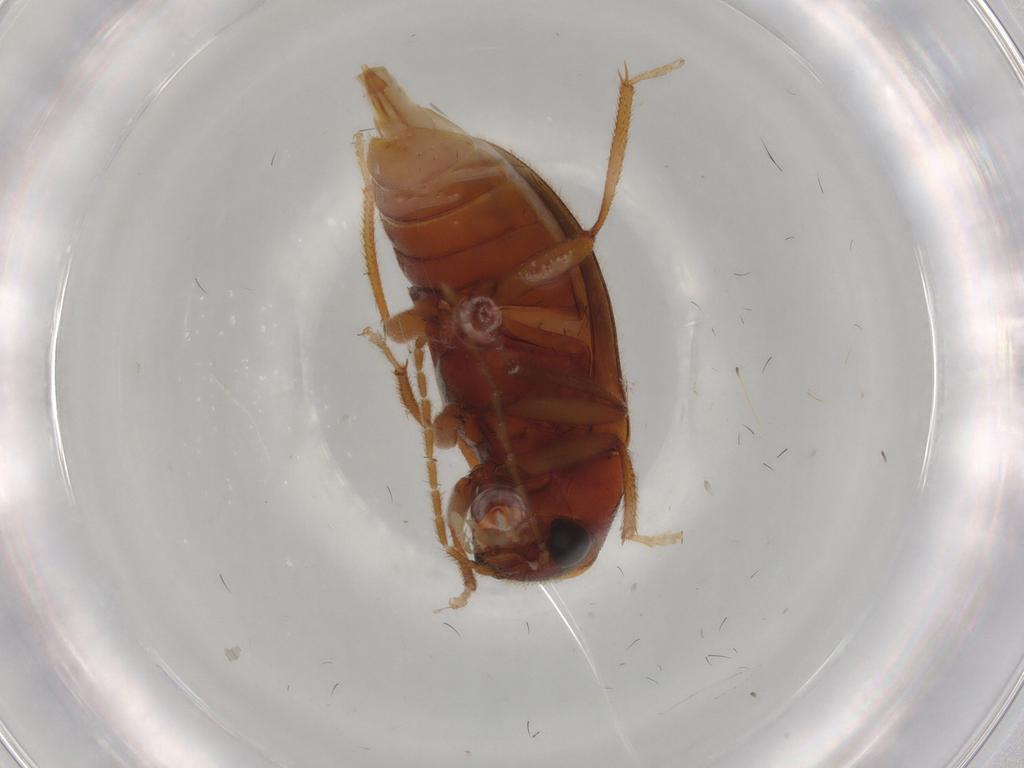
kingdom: Animalia
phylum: Arthropoda
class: Insecta
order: Coleoptera
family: Ptilodactylidae
